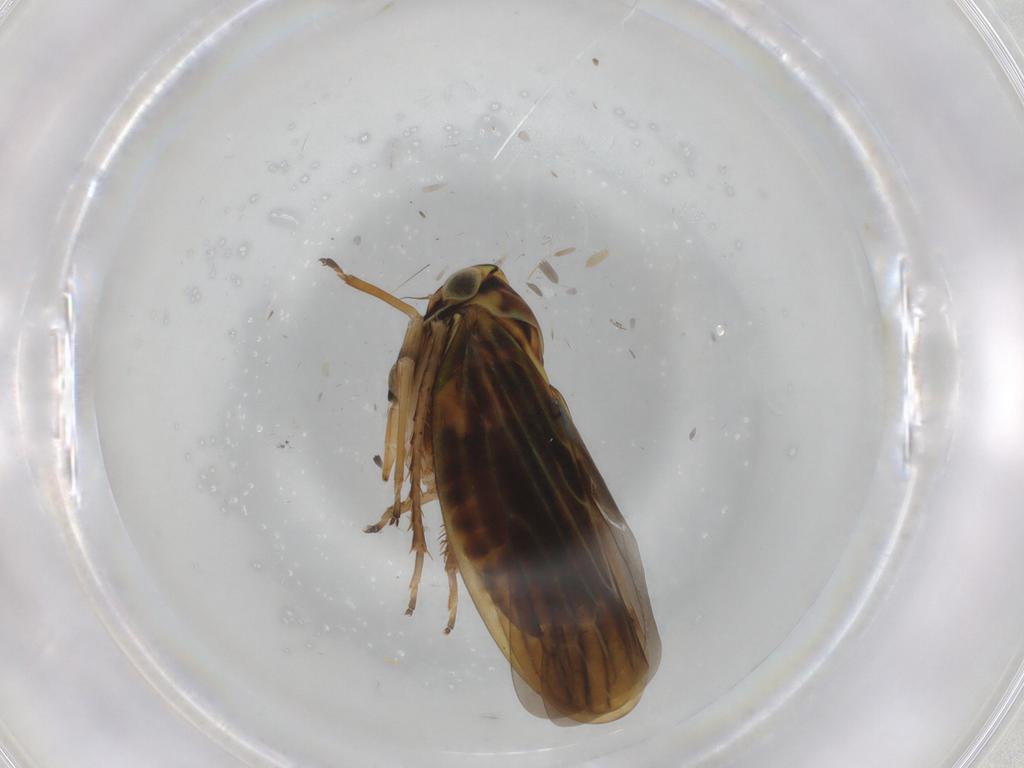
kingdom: Animalia
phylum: Arthropoda
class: Insecta
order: Hemiptera
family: Cicadellidae
